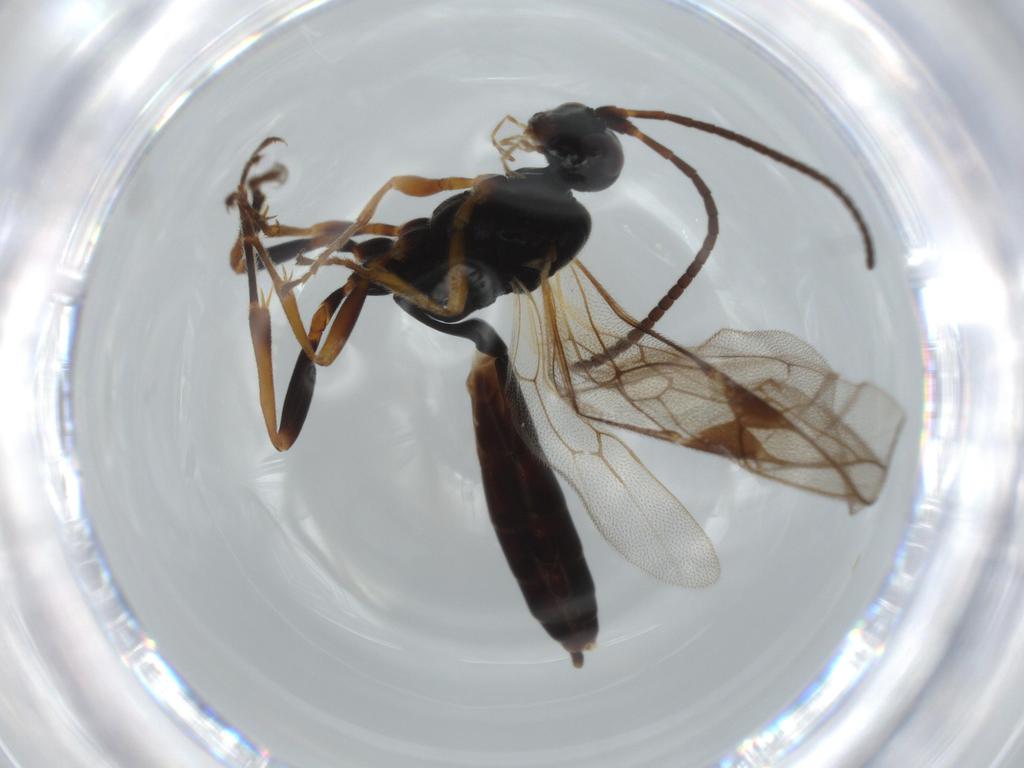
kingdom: Animalia
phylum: Arthropoda
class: Insecta
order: Hymenoptera
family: Ichneumonidae
